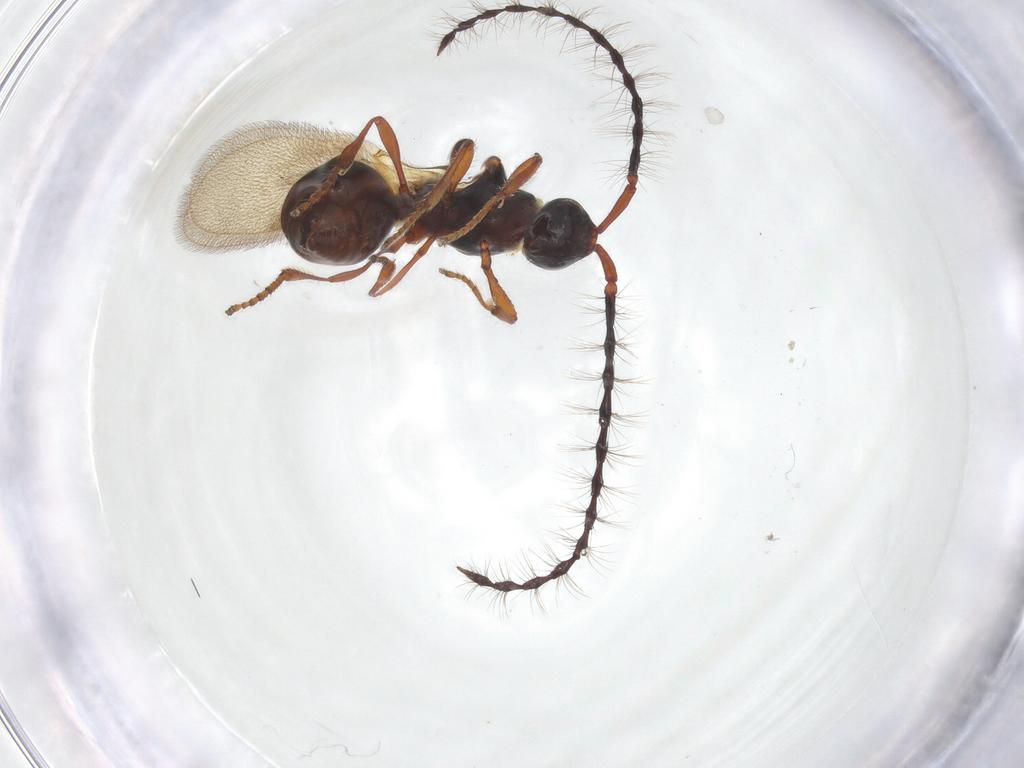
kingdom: Animalia
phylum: Arthropoda
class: Insecta
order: Hymenoptera
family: Diapriidae
